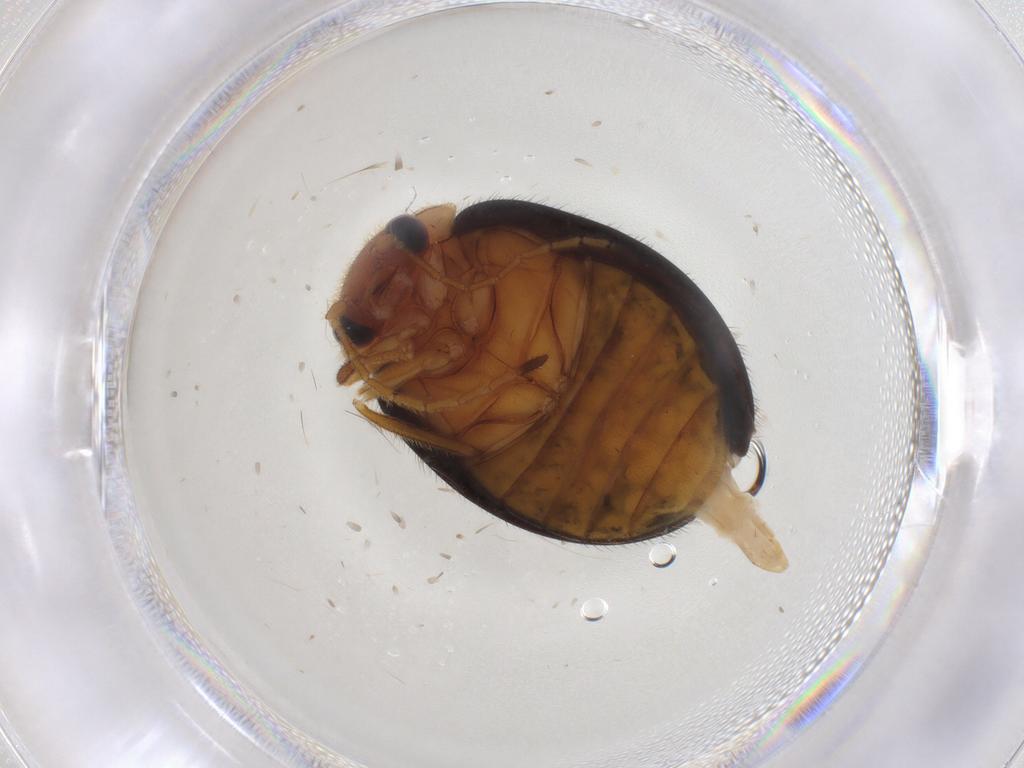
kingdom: Animalia
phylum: Arthropoda
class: Insecta
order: Coleoptera
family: Scirtidae
